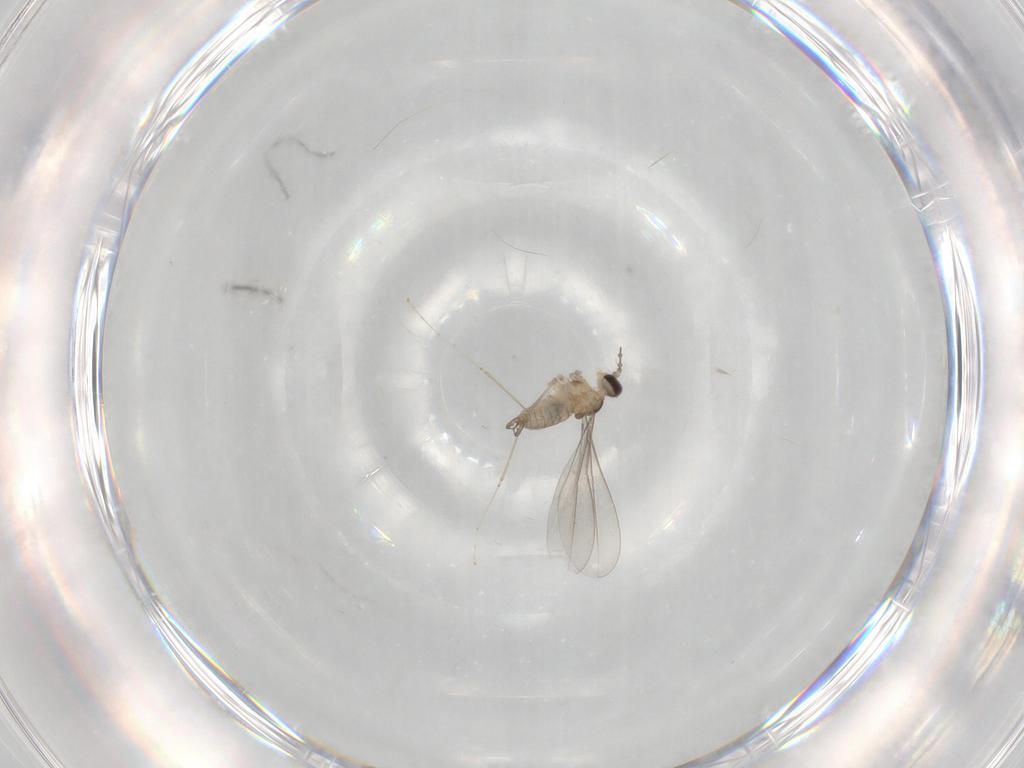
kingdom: Animalia
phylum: Arthropoda
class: Insecta
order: Diptera
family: Cecidomyiidae
